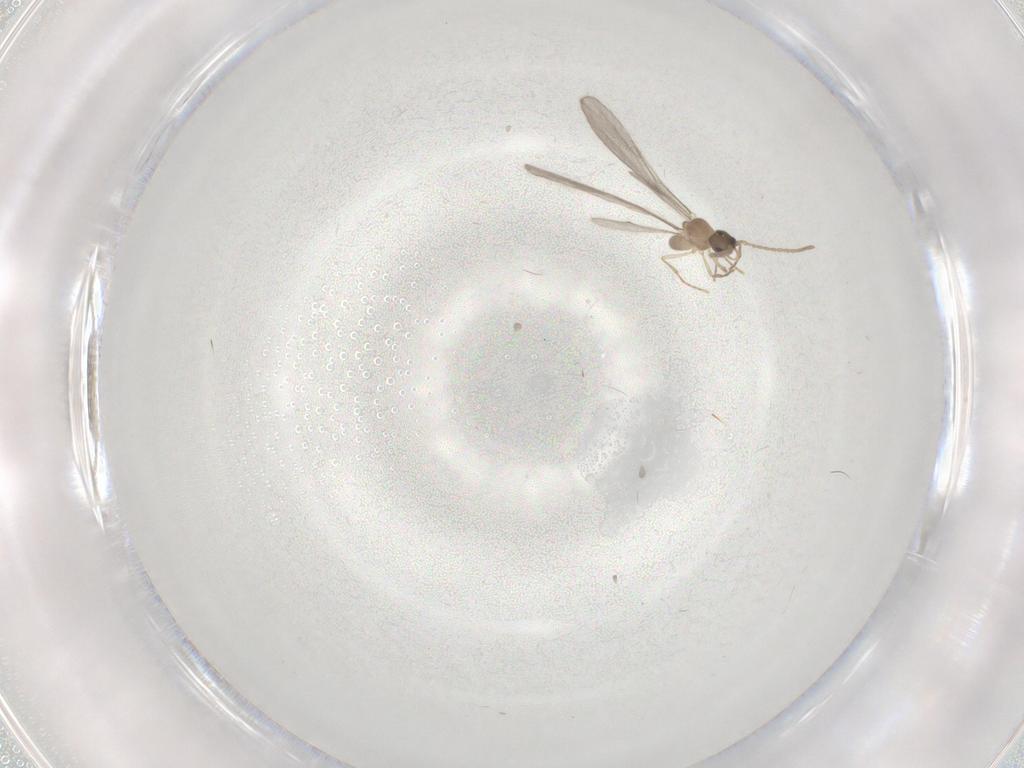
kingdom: Animalia
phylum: Arthropoda
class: Insecta
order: Hymenoptera
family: Formicidae
